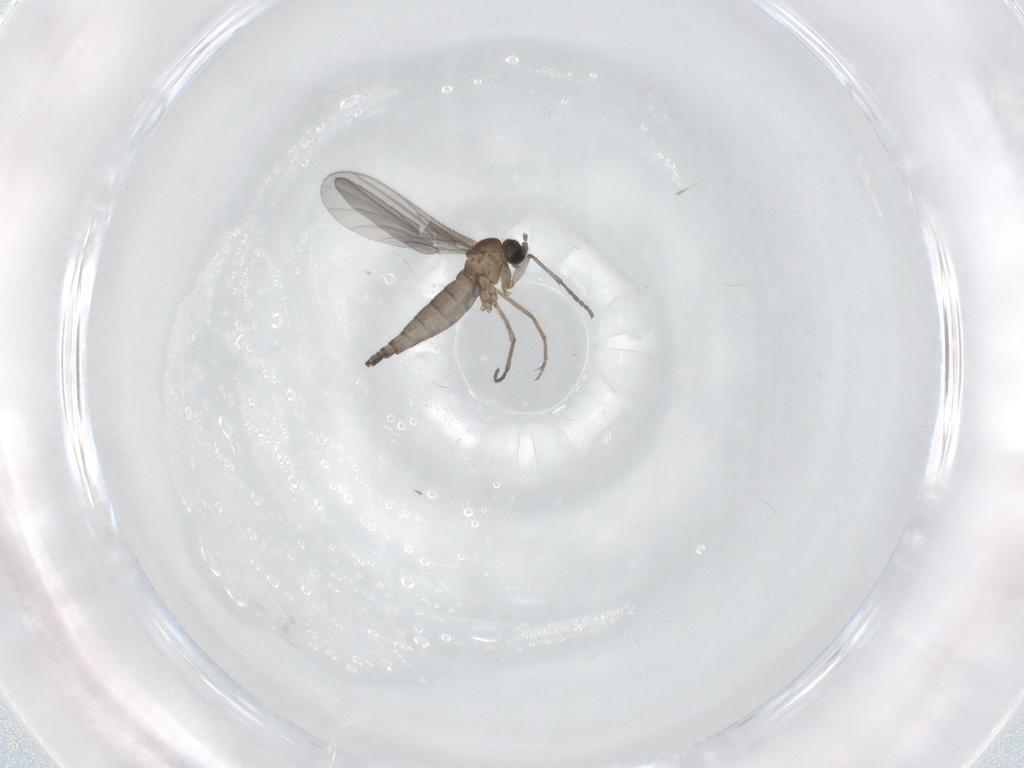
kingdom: Animalia
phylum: Arthropoda
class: Insecta
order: Diptera
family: Sciaridae
